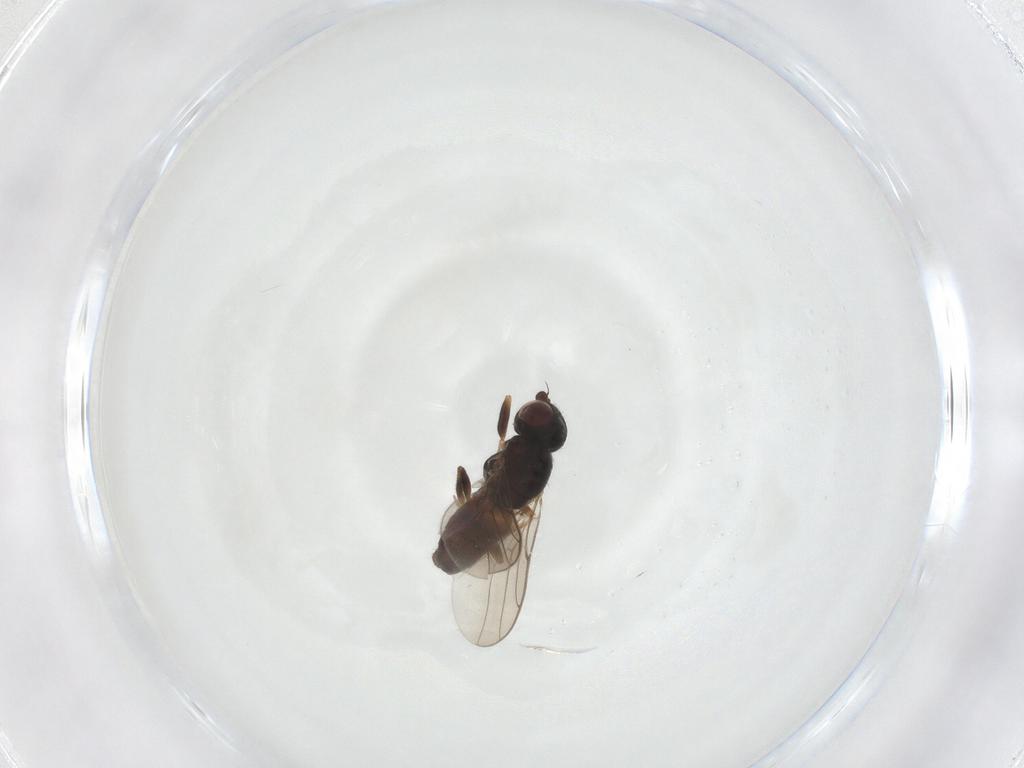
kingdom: Animalia
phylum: Arthropoda
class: Insecta
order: Diptera
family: Chloropidae
